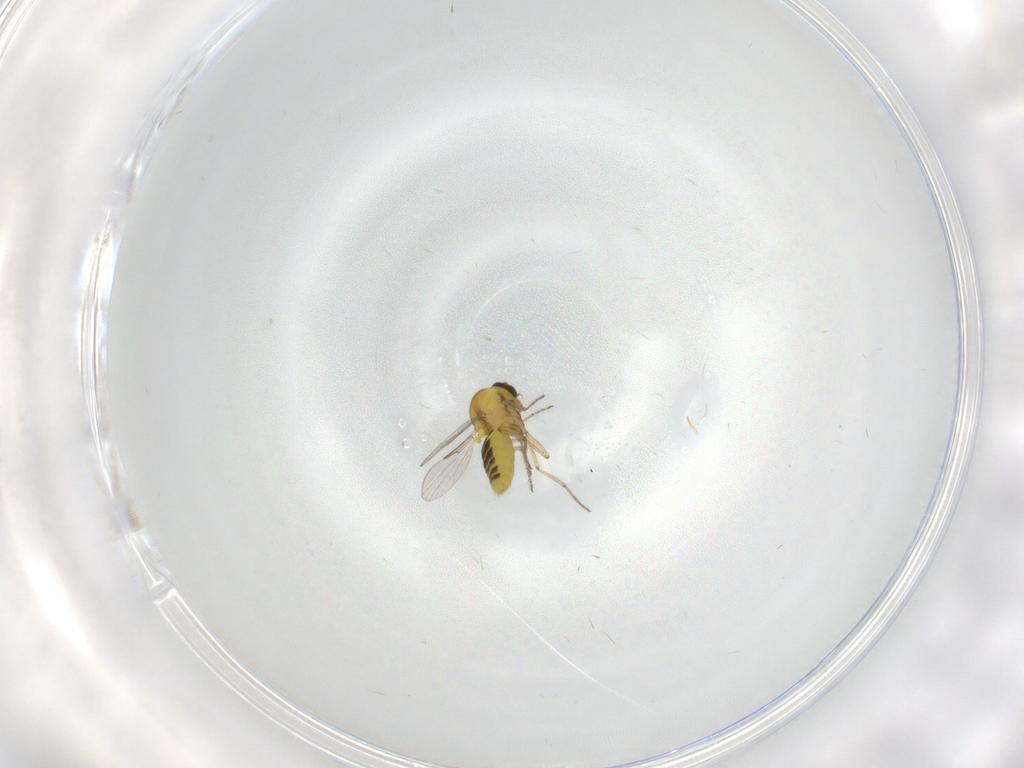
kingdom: Animalia
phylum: Arthropoda
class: Insecta
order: Diptera
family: Ceratopogonidae
